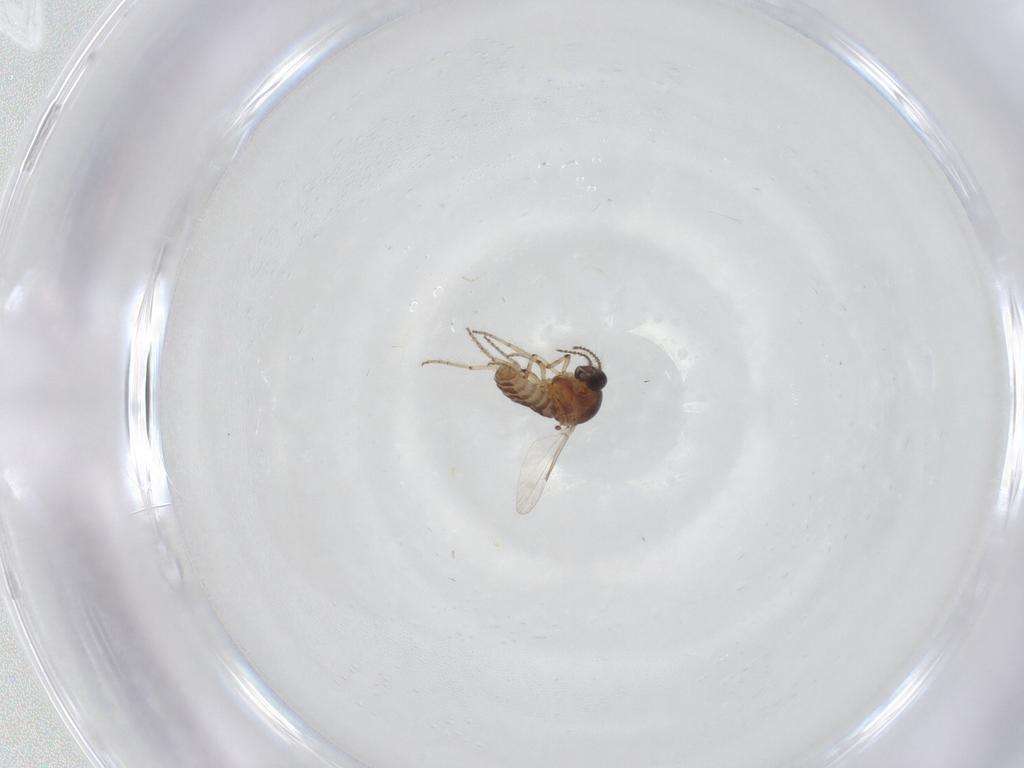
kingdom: Animalia
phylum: Arthropoda
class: Insecta
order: Diptera
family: Ceratopogonidae
